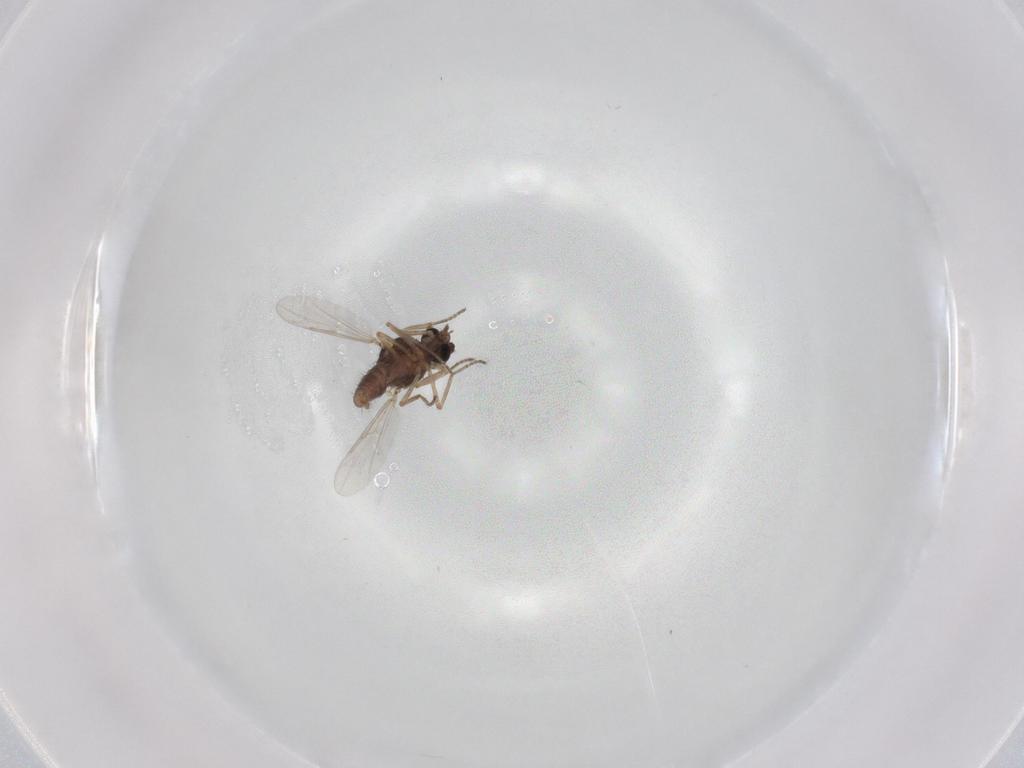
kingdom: Animalia
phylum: Arthropoda
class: Insecta
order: Diptera
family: Ceratopogonidae
